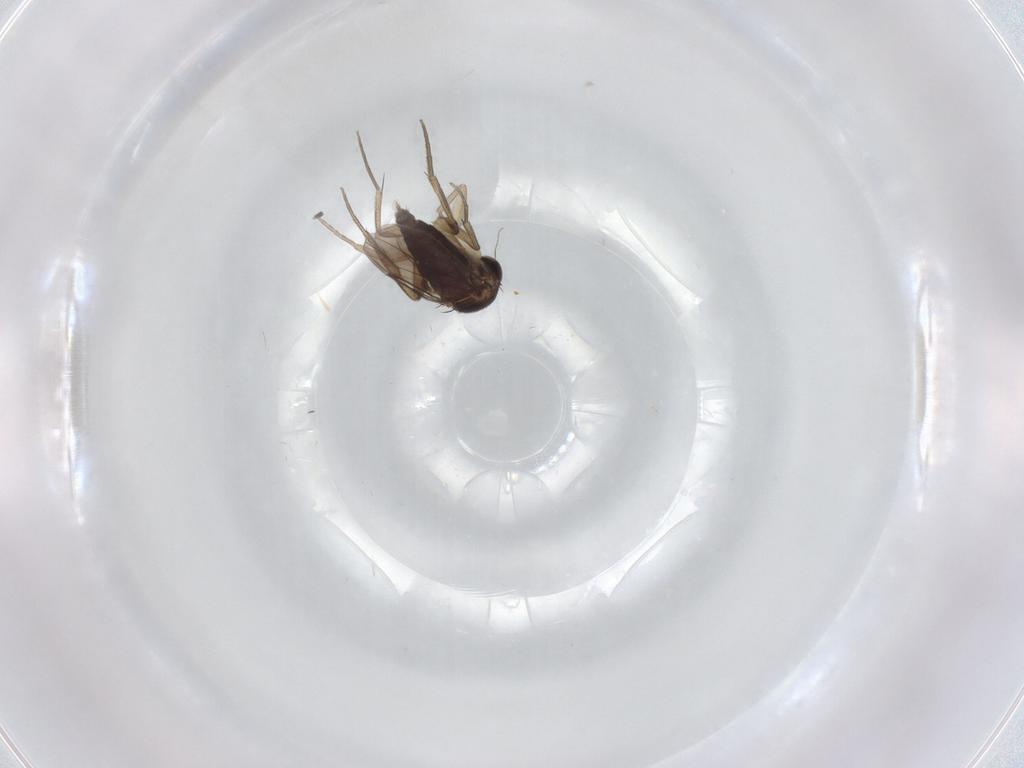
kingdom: Animalia
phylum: Arthropoda
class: Insecta
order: Diptera
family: Phoridae
